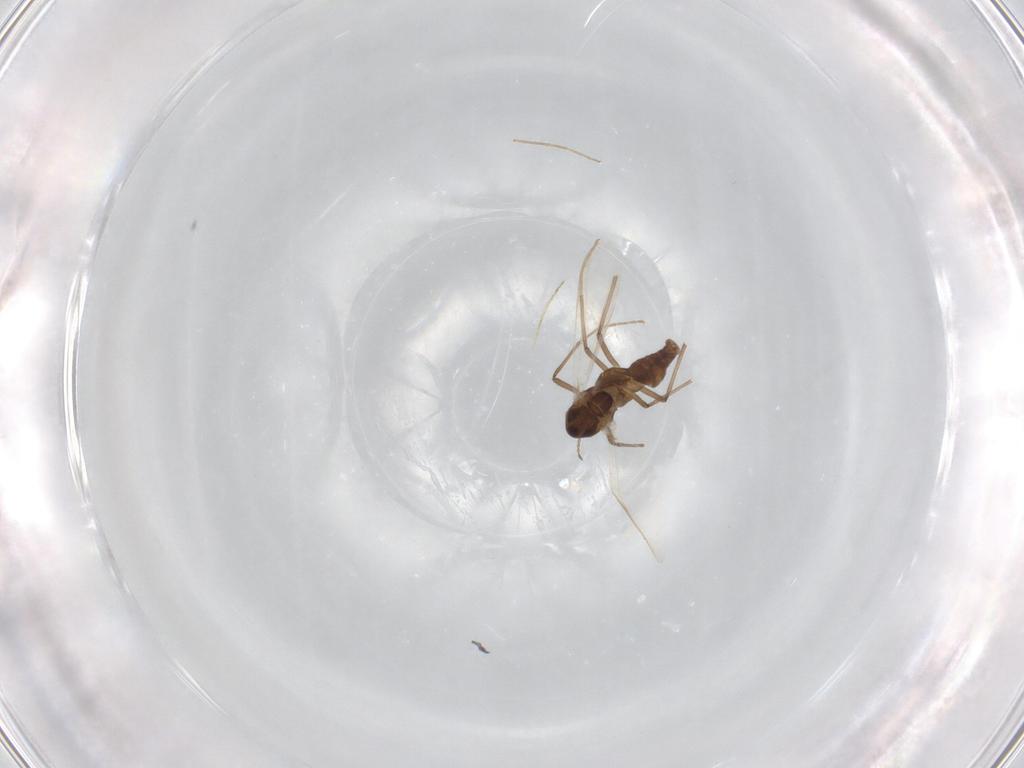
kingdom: Animalia
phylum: Arthropoda
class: Insecta
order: Diptera
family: Chironomidae
